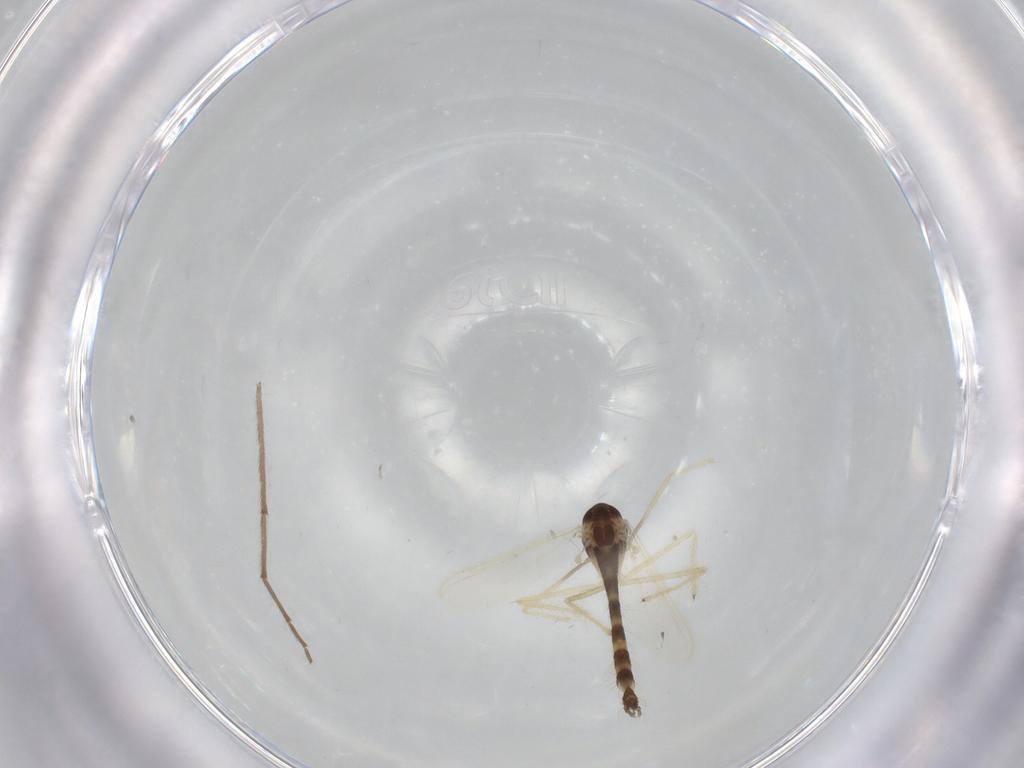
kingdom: Animalia
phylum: Arthropoda
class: Insecta
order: Diptera
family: Chironomidae
